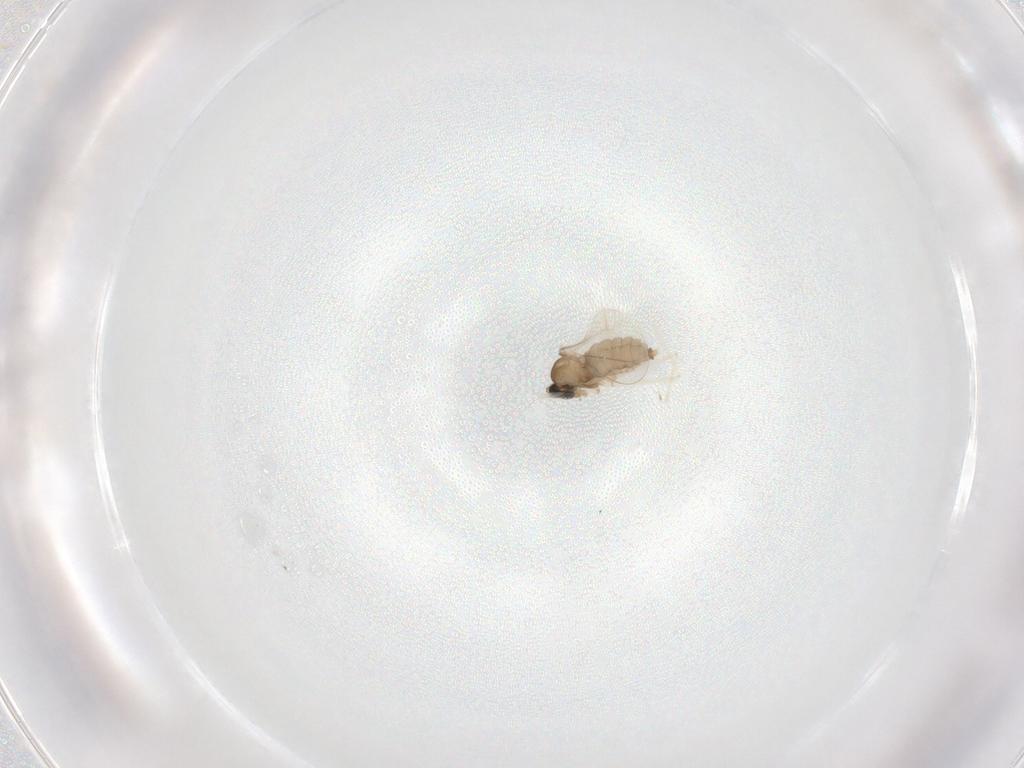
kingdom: Animalia
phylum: Arthropoda
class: Insecta
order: Diptera
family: Cecidomyiidae
